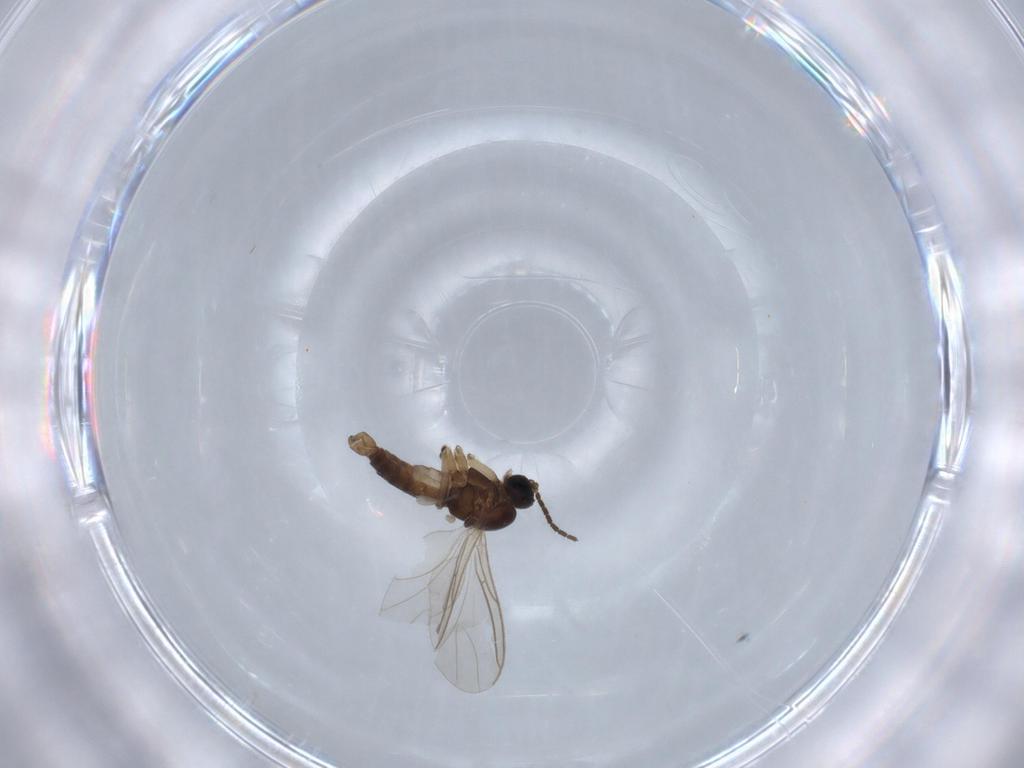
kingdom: Animalia
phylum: Arthropoda
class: Insecta
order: Diptera
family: Sciaridae
